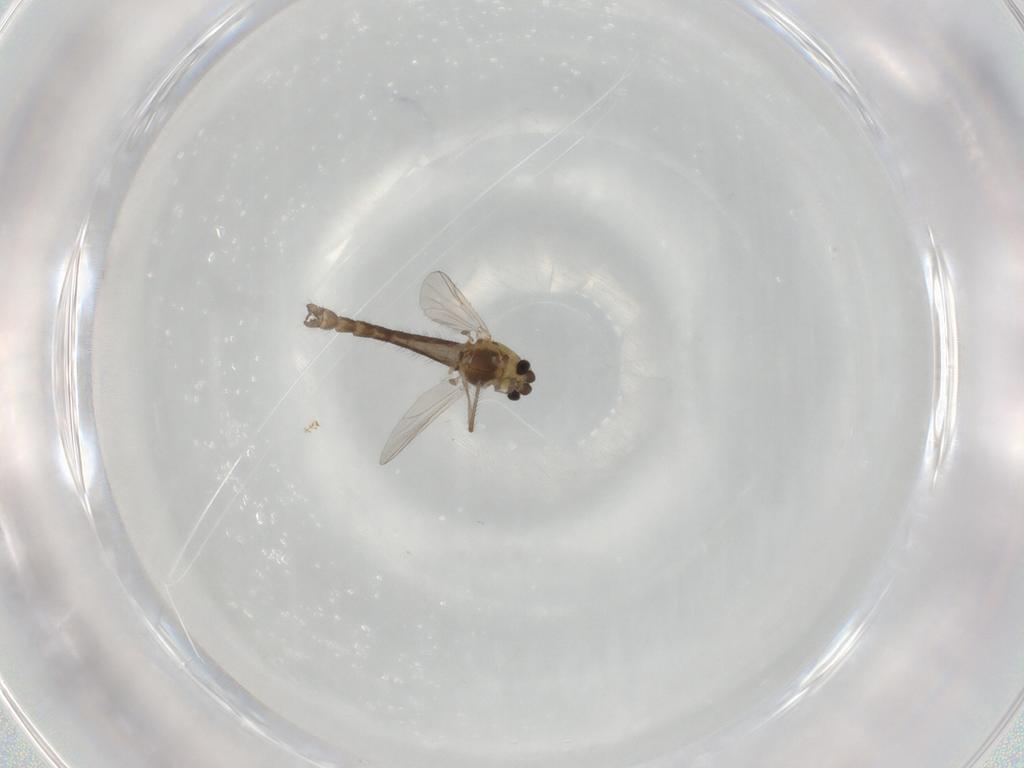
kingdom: Animalia
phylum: Arthropoda
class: Insecta
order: Diptera
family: Chironomidae
